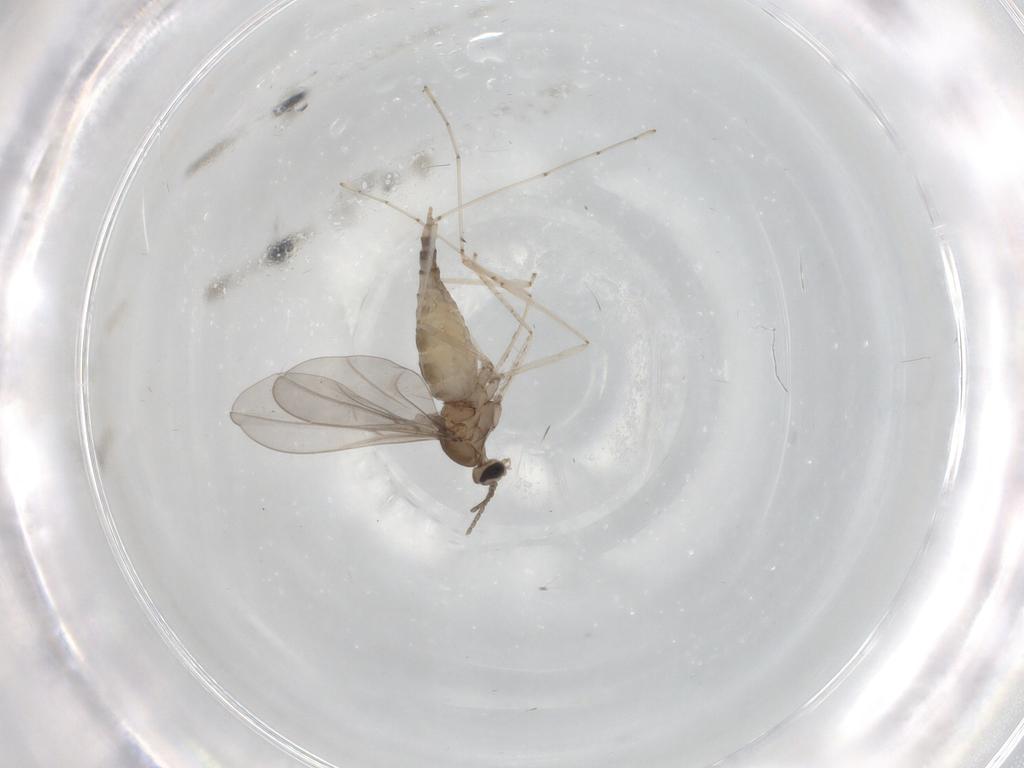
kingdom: Animalia
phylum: Arthropoda
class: Insecta
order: Diptera
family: Cecidomyiidae
